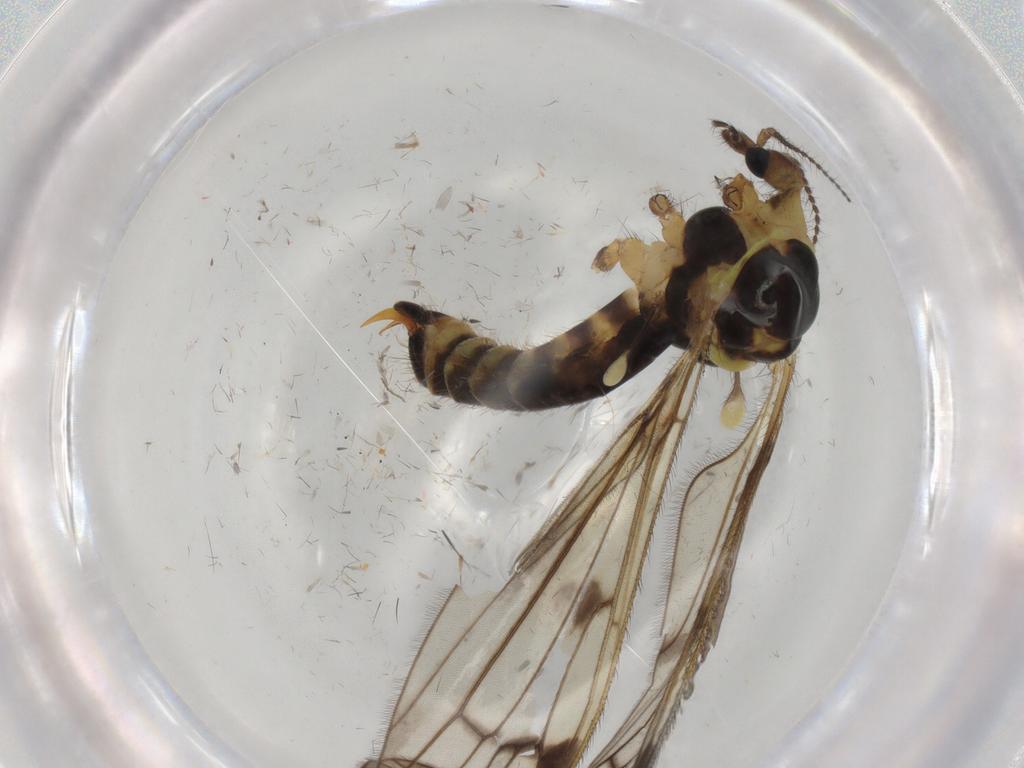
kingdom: Animalia
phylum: Arthropoda
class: Insecta
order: Diptera
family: Limoniidae
